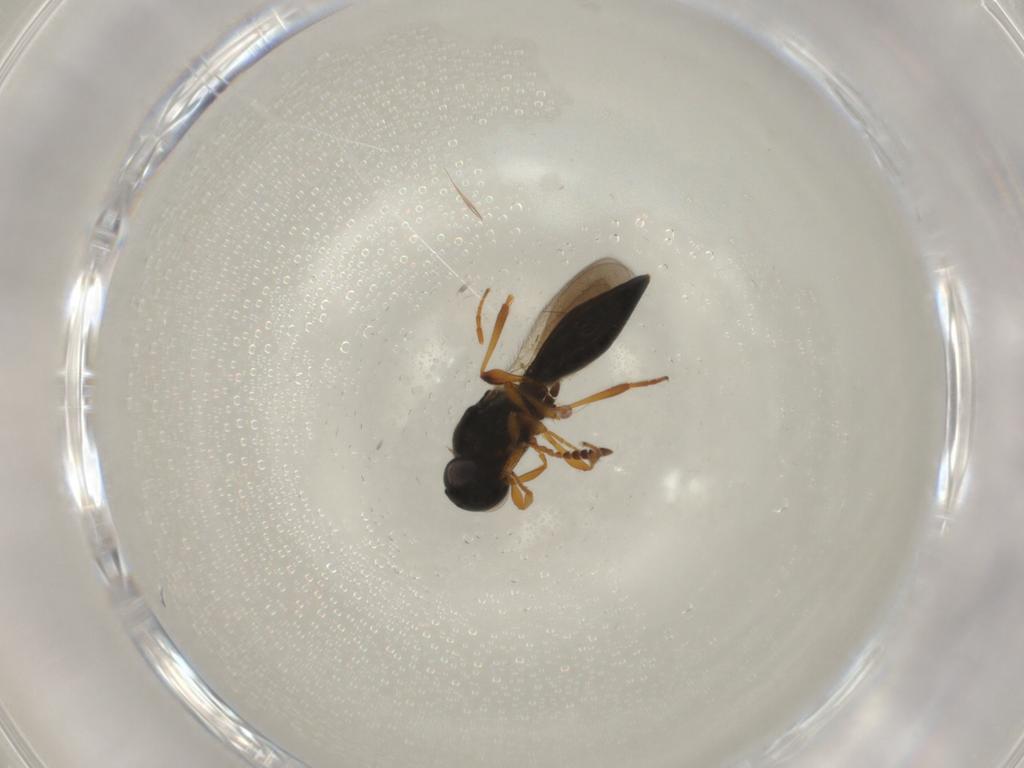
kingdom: Animalia
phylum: Arthropoda
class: Insecta
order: Hymenoptera
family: Platygastridae
